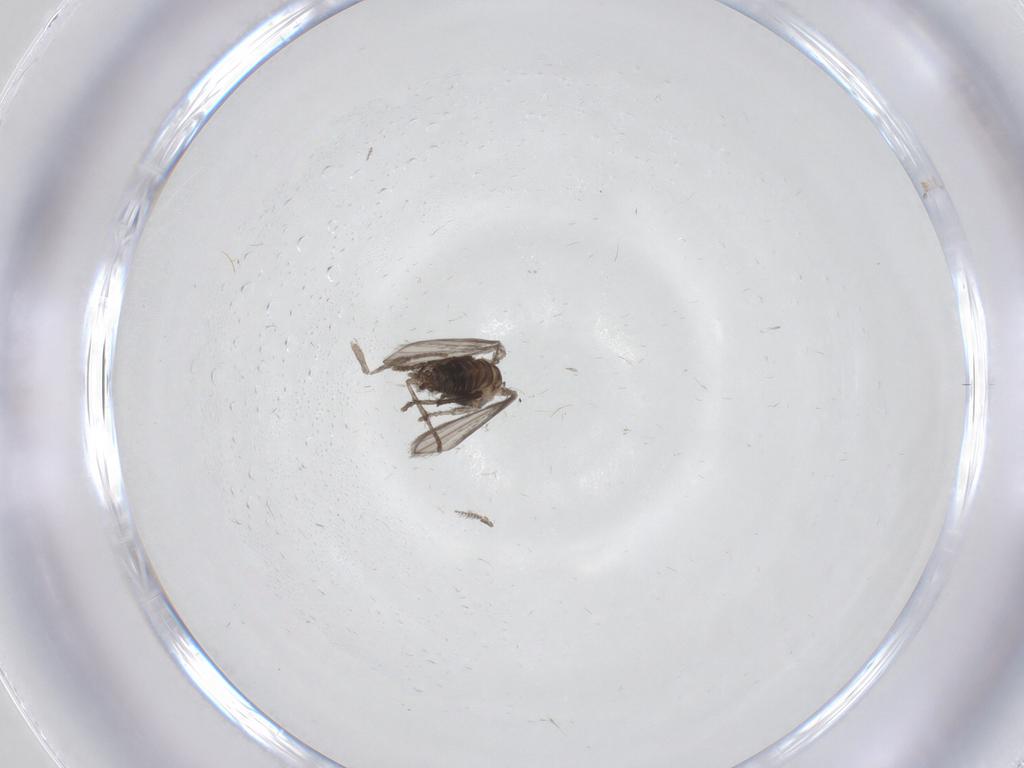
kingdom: Animalia
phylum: Arthropoda
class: Insecta
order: Diptera
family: Psychodidae
